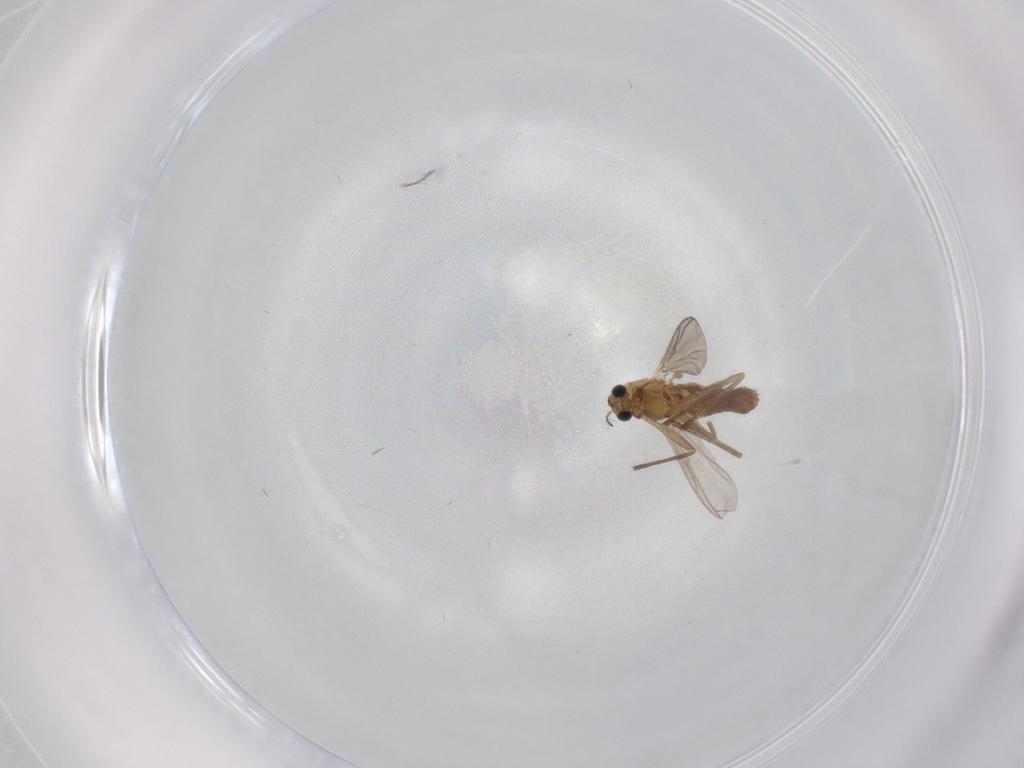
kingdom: Animalia
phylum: Arthropoda
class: Insecta
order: Diptera
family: Chironomidae
